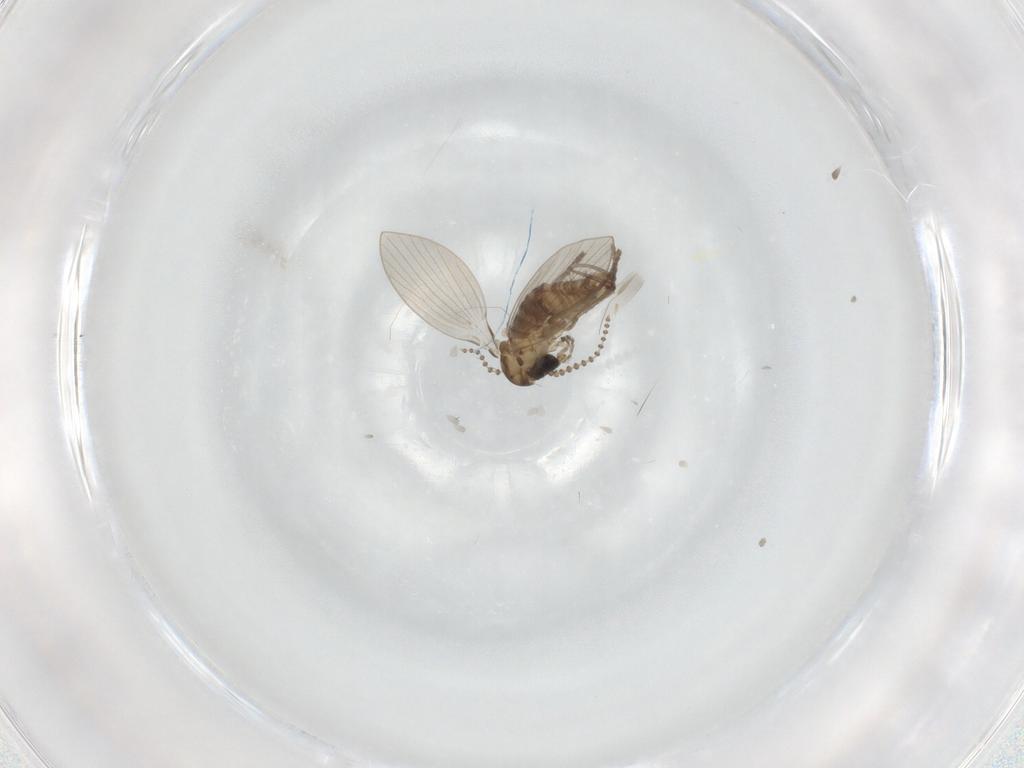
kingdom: Animalia
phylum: Arthropoda
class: Insecta
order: Diptera
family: Psychodidae
